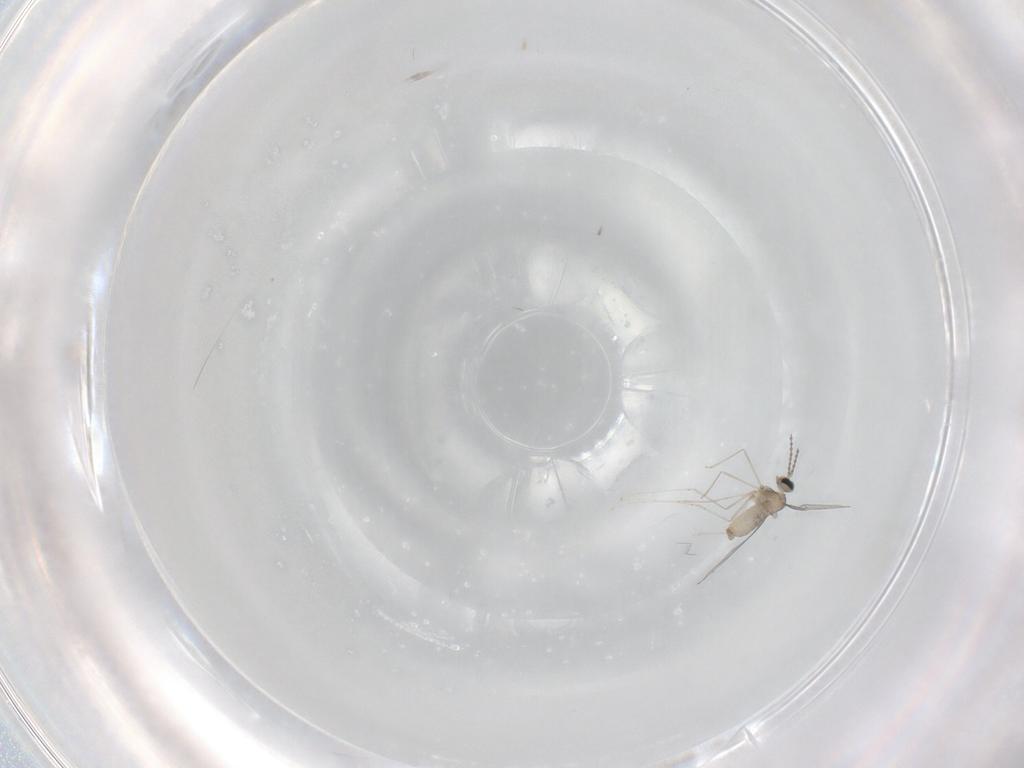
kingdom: Animalia
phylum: Arthropoda
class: Insecta
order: Diptera
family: Cecidomyiidae
